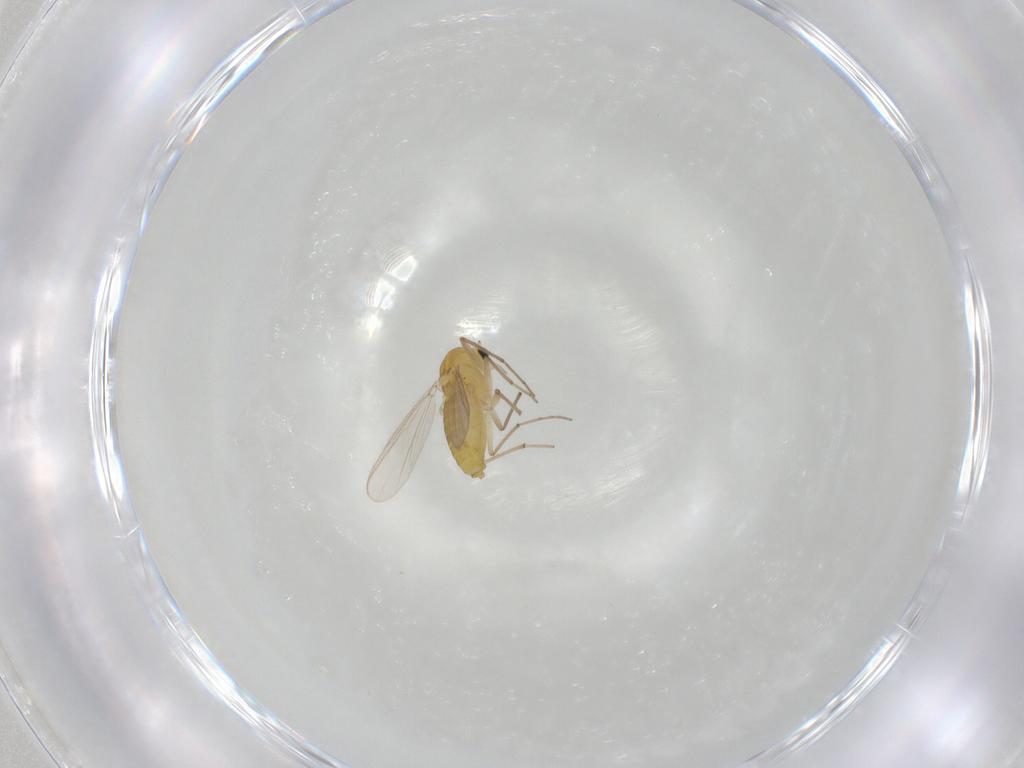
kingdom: Animalia
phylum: Arthropoda
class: Insecta
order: Diptera
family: Chironomidae
